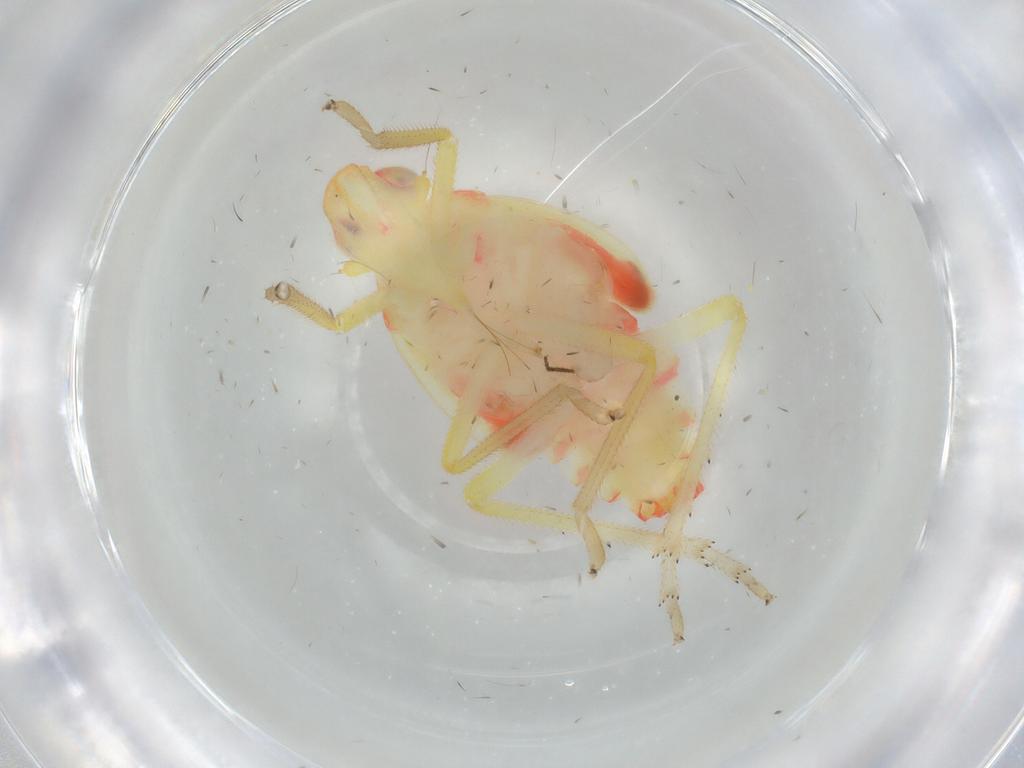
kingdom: Animalia
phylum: Arthropoda
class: Insecta
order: Hemiptera
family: Tropiduchidae
